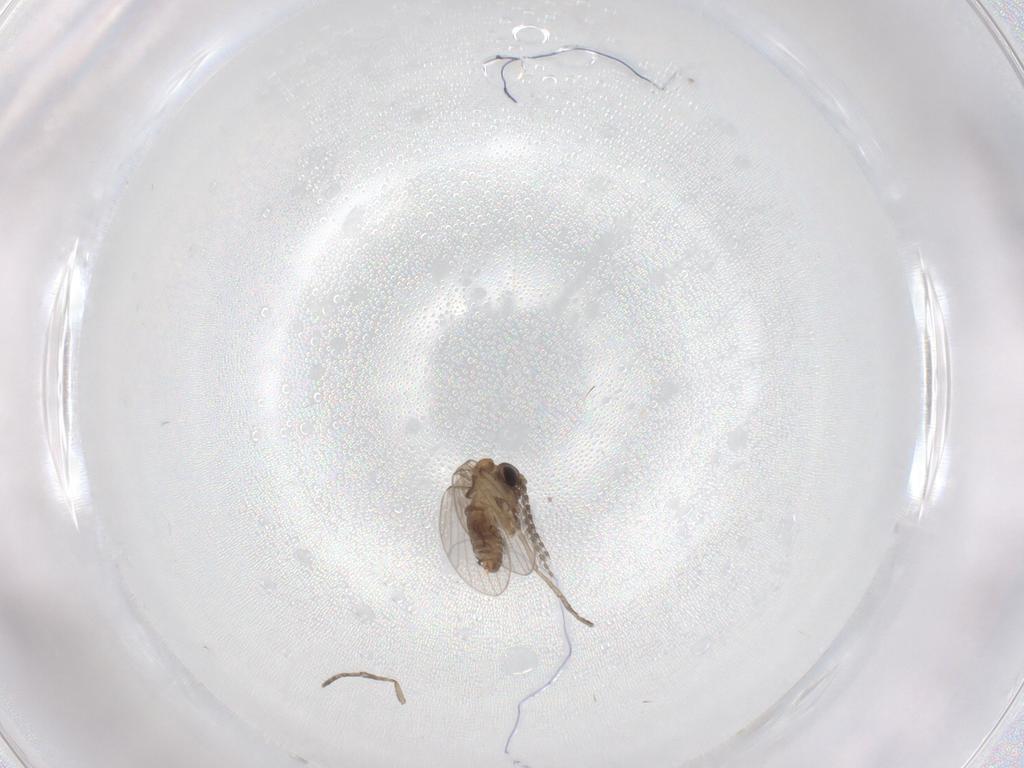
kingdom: Animalia
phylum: Arthropoda
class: Insecta
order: Diptera
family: Psychodidae
